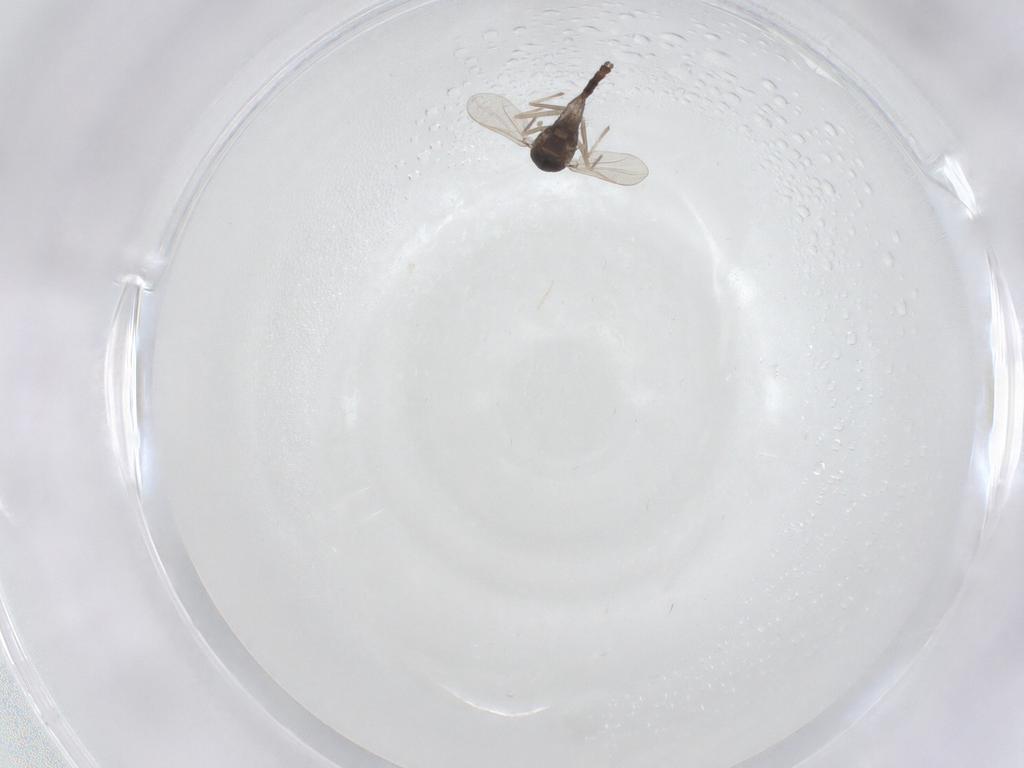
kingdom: Animalia
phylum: Arthropoda
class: Insecta
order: Diptera
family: Chironomidae
